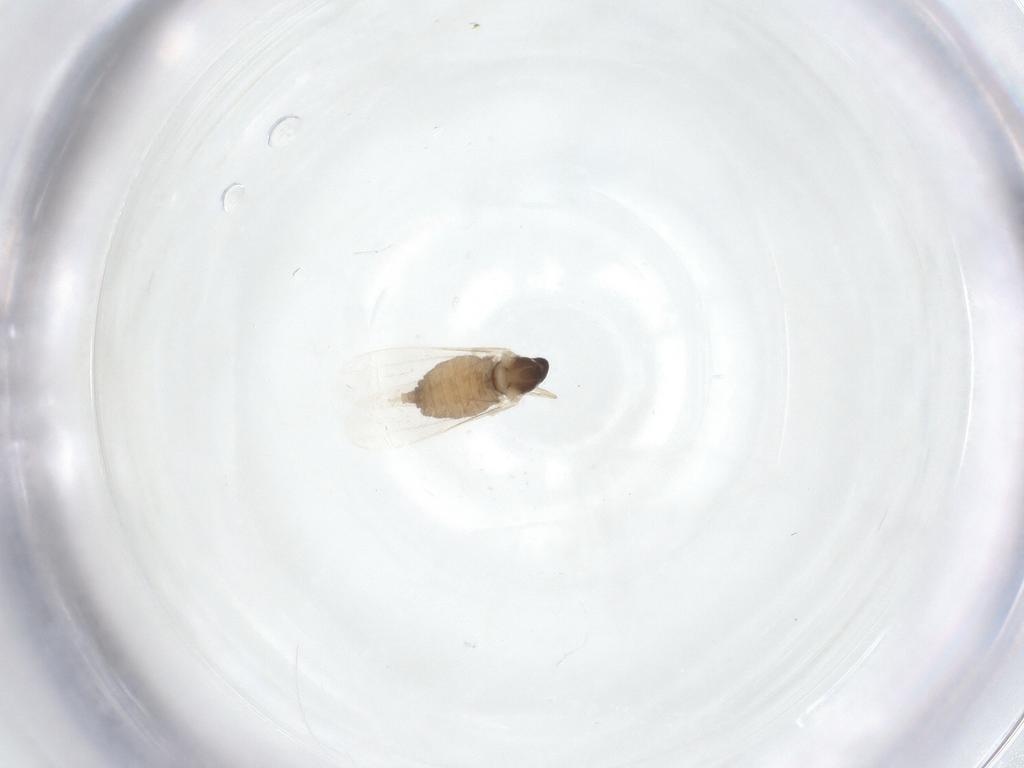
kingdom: Animalia
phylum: Arthropoda
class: Insecta
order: Diptera
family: Cecidomyiidae
